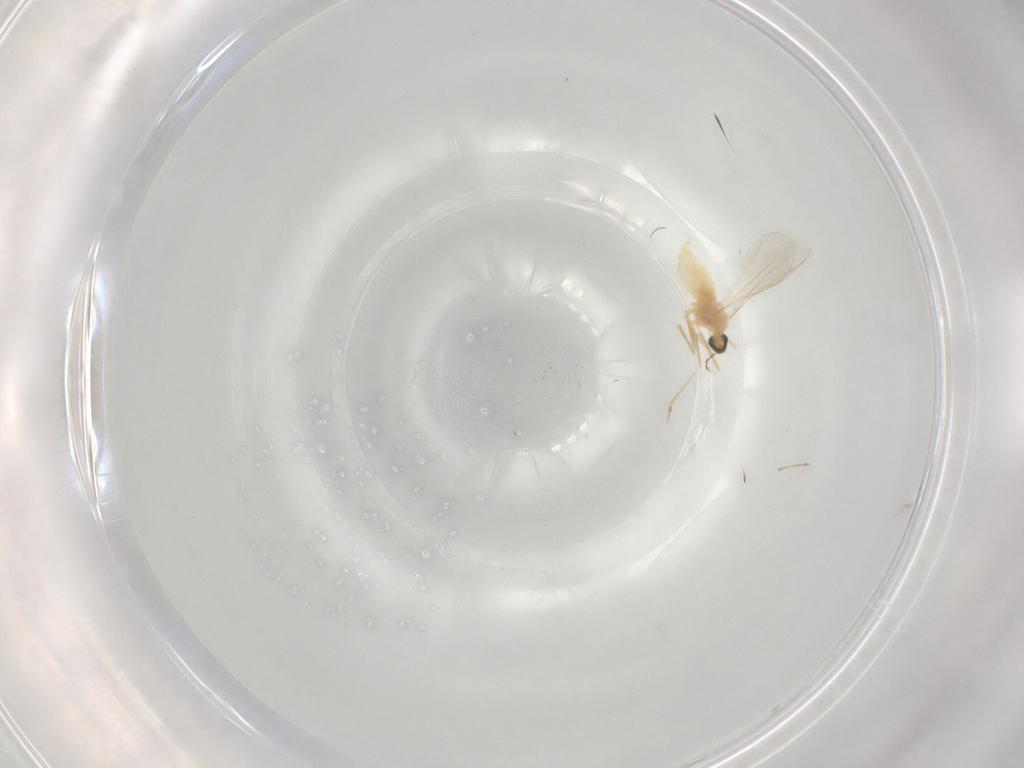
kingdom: Animalia
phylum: Arthropoda
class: Insecta
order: Diptera
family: Cecidomyiidae
